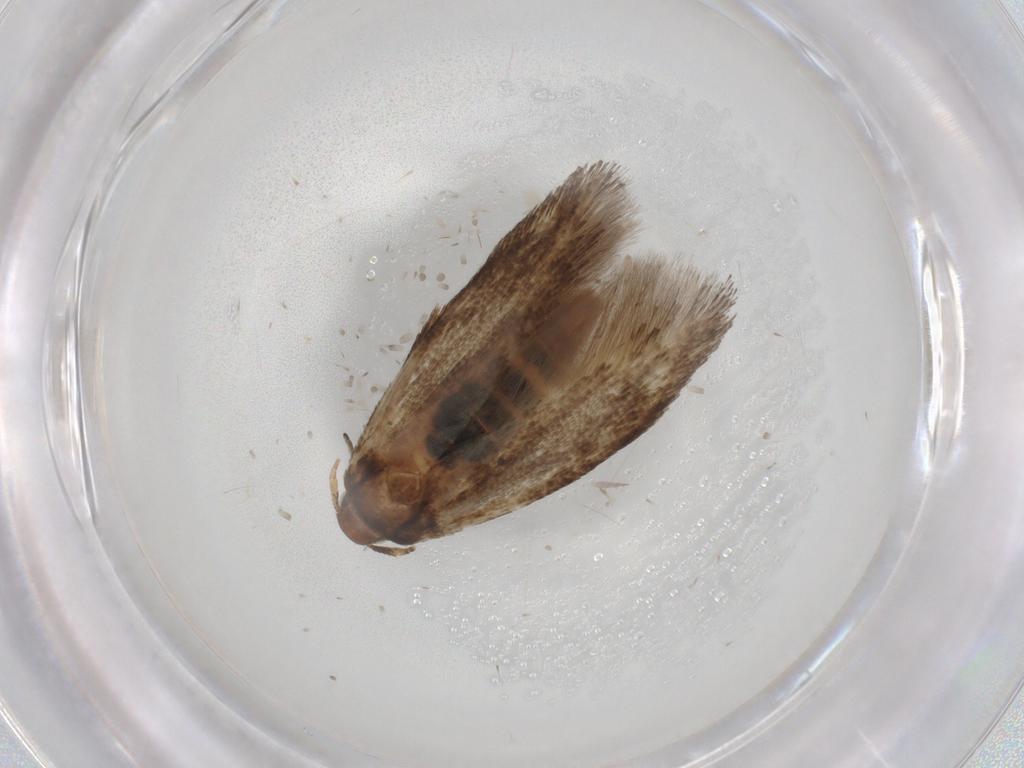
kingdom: Animalia
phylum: Arthropoda
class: Insecta
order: Lepidoptera
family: Cosmopterigidae
